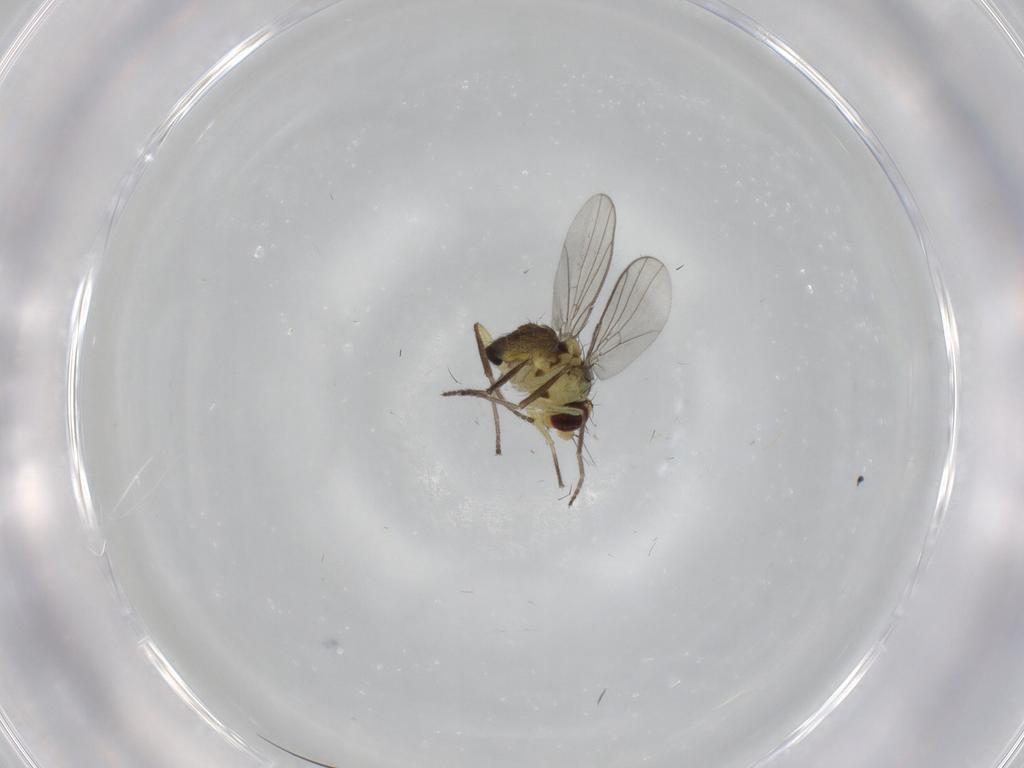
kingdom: Animalia
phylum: Arthropoda
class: Insecta
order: Diptera
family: Agromyzidae
